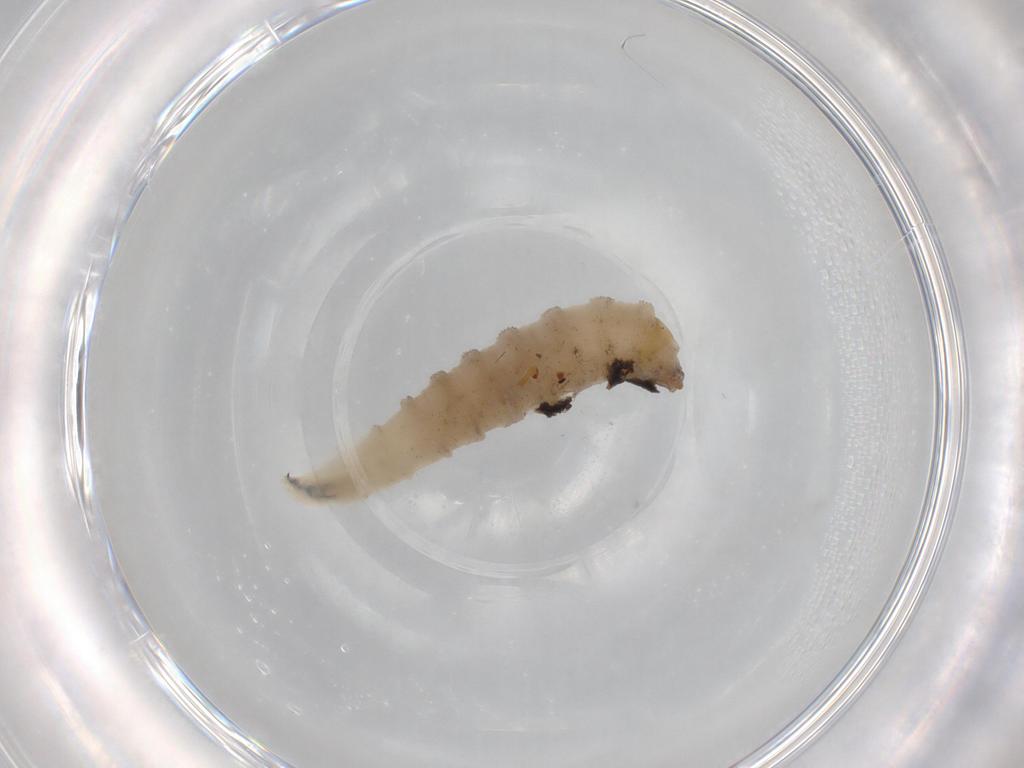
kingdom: Animalia
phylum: Arthropoda
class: Insecta
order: Diptera
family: Drosophilidae
